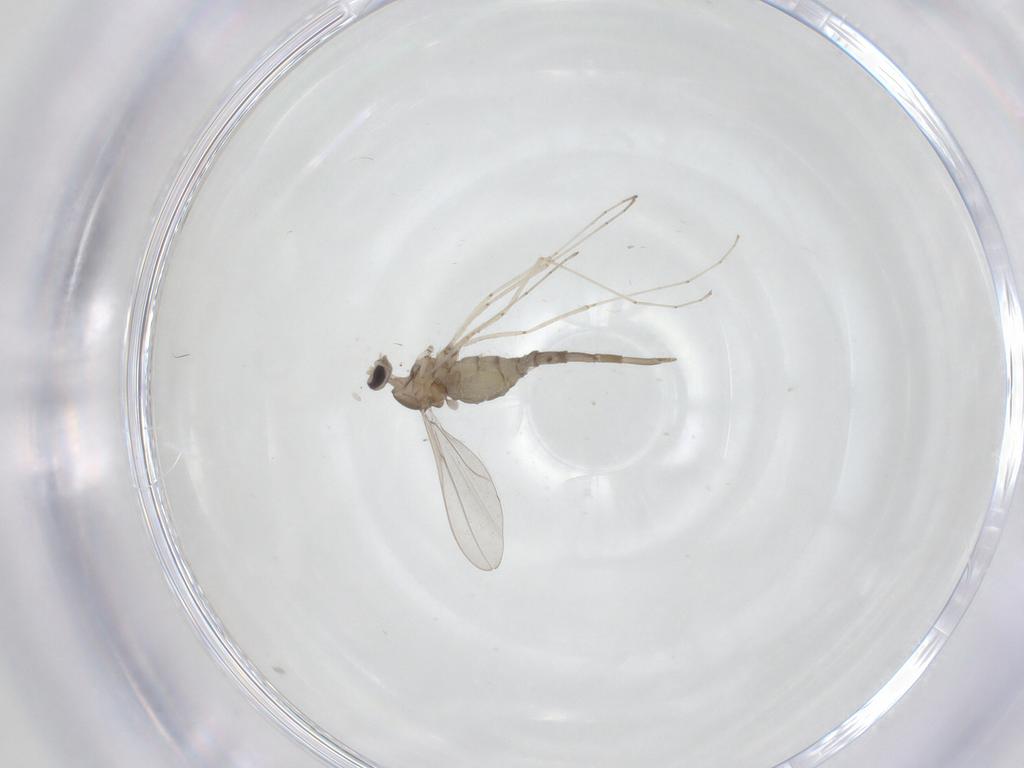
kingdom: Animalia
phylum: Arthropoda
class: Insecta
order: Diptera
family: Cecidomyiidae
